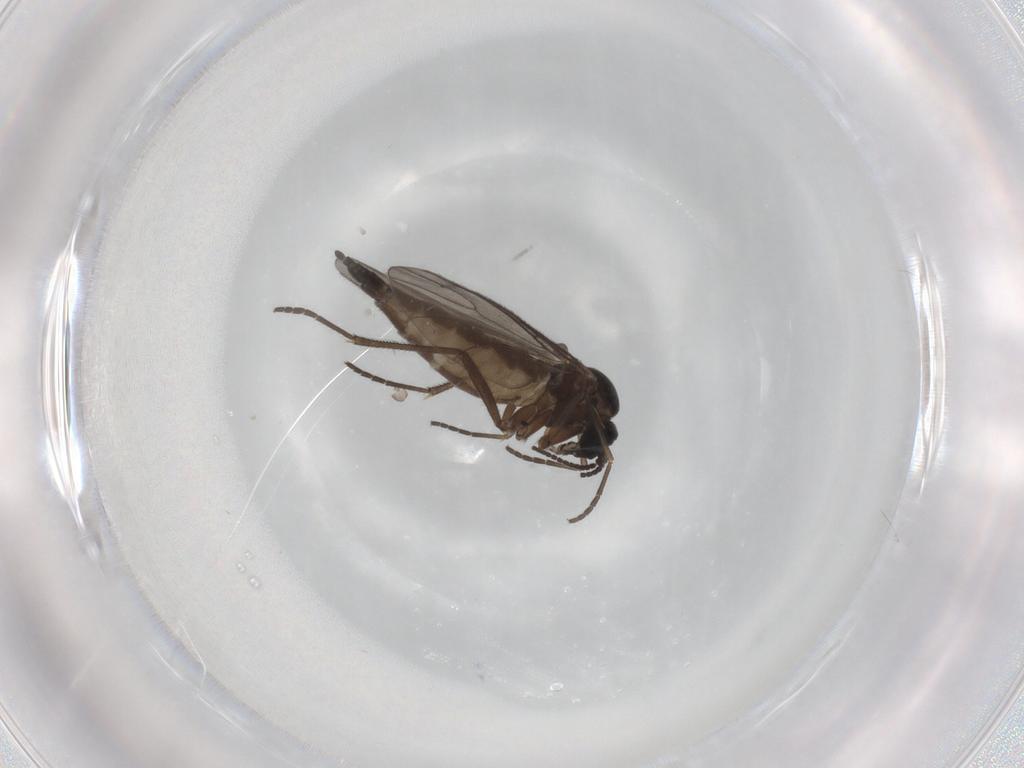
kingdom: Animalia
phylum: Arthropoda
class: Insecta
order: Diptera
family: Sciaridae
